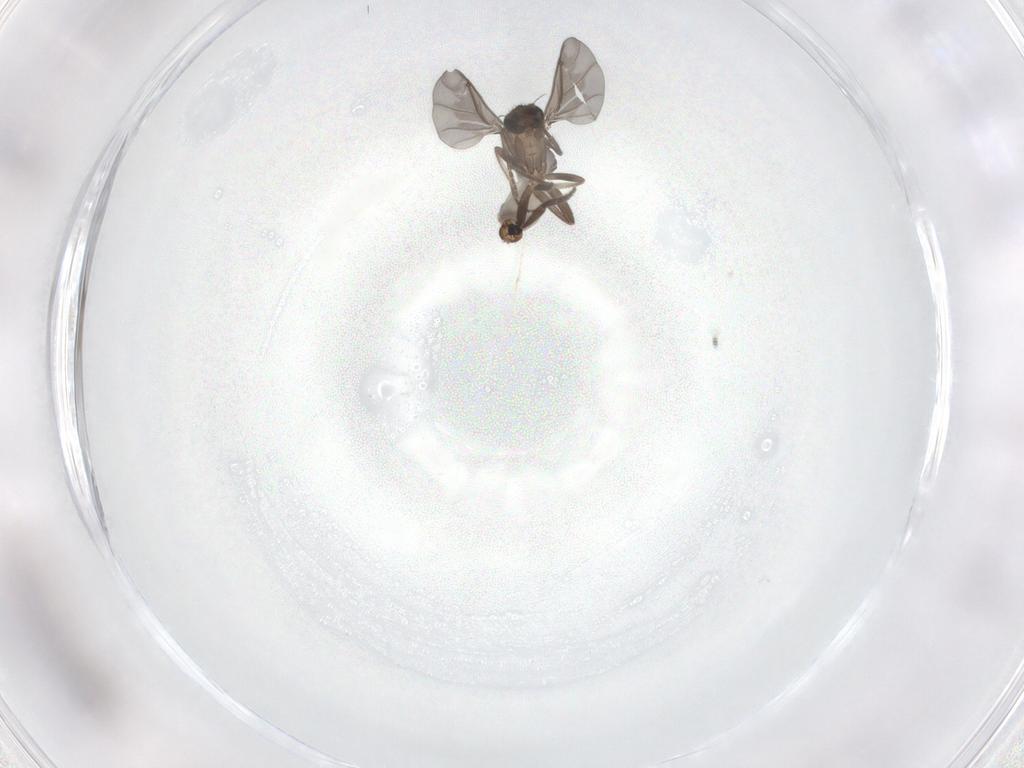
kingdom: Animalia
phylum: Arthropoda
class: Insecta
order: Diptera
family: Phoridae
